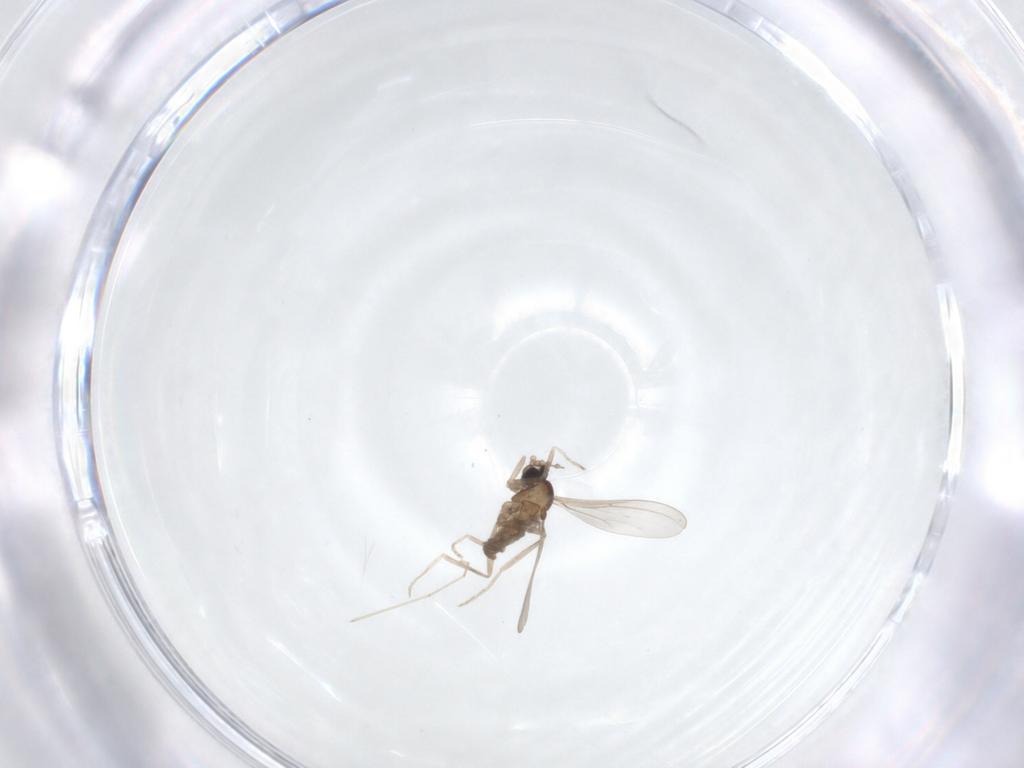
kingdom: Animalia
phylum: Arthropoda
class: Insecta
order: Diptera
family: Cecidomyiidae
